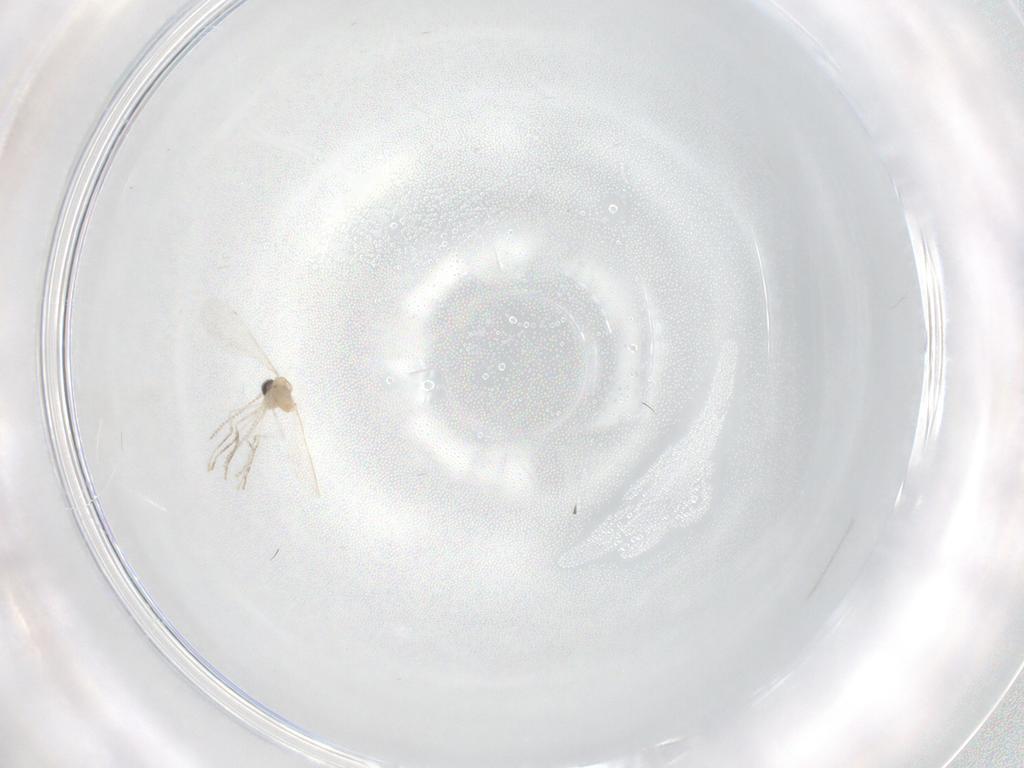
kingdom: Animalia
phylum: Arthropoda
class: Insecta
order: Diptera
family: Cecidomyiidae
